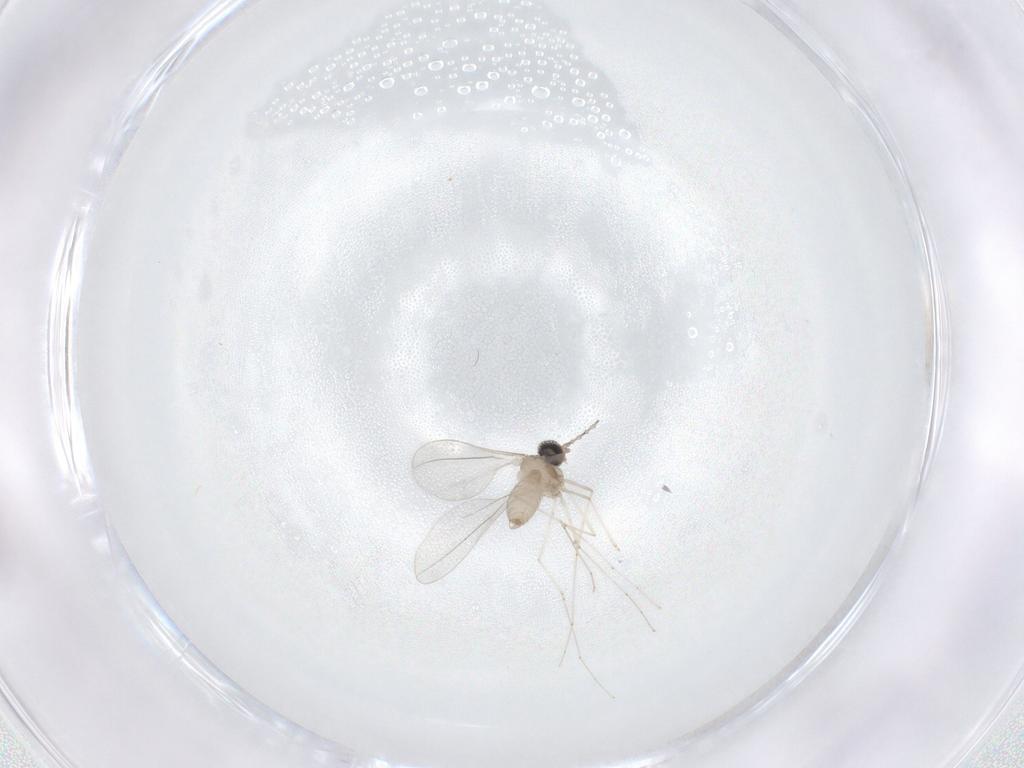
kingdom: Animalia
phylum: Arthropoda
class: Insecta
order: Diptera
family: Cecidomyiidae
